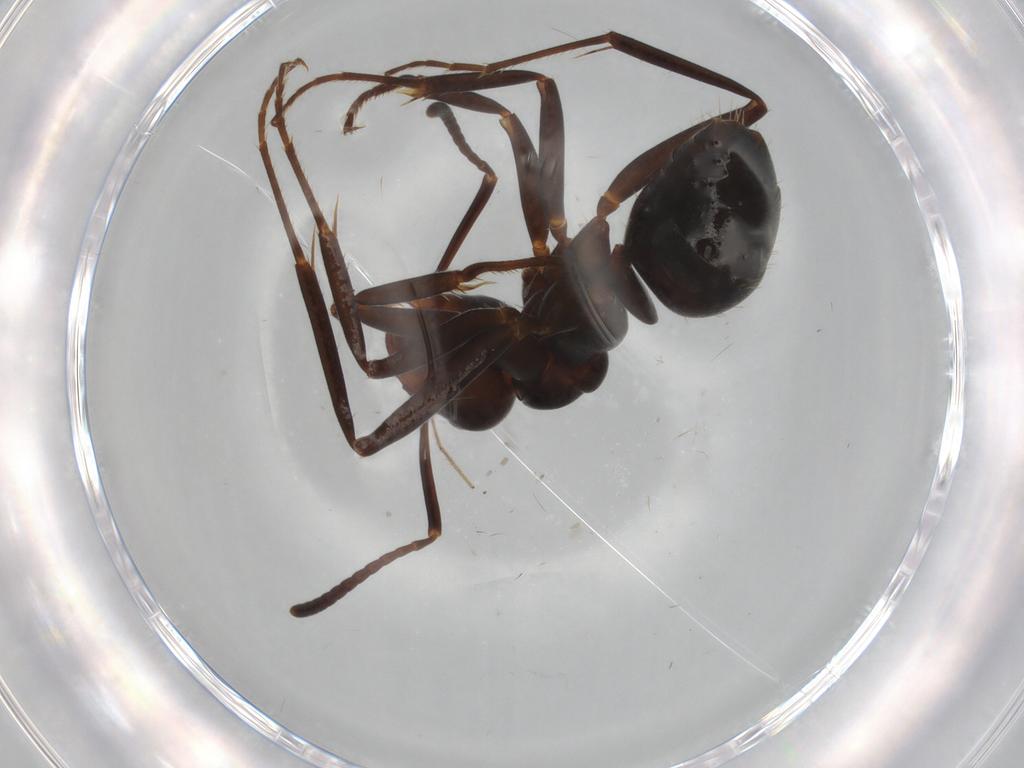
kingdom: Animalia
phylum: Arthropoda
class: Insecta
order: Hymenoptera
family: Formicidae
